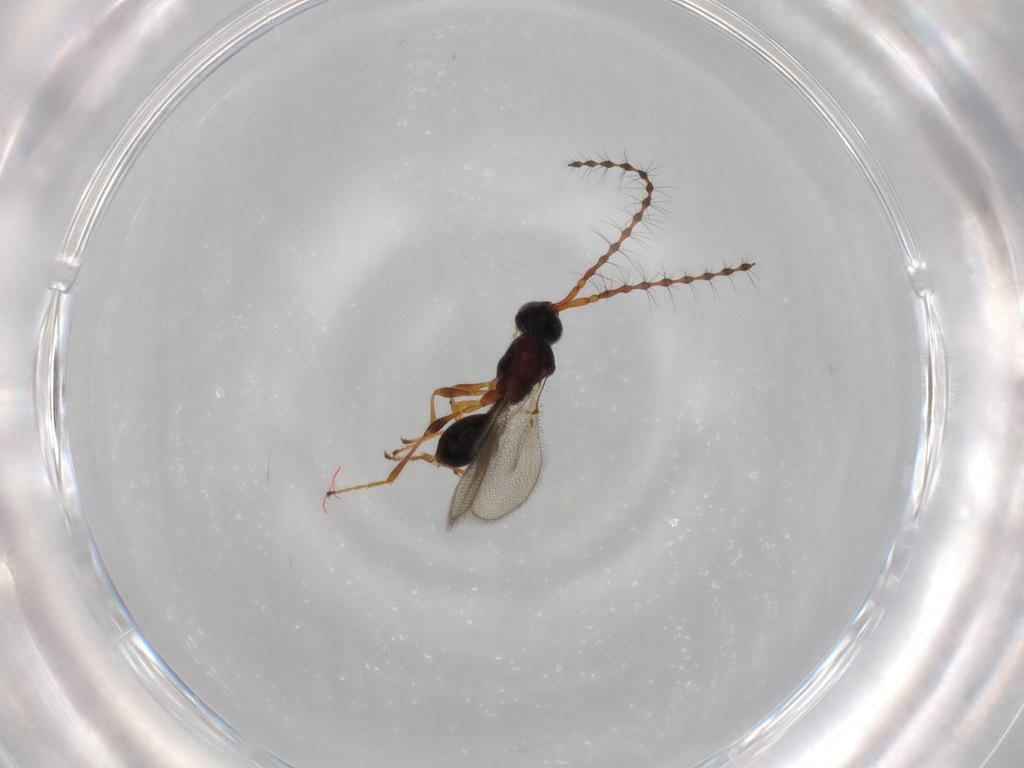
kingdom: Animalia
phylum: Arthropoda
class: Insecta
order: Hymenoptera
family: Diapriidae
